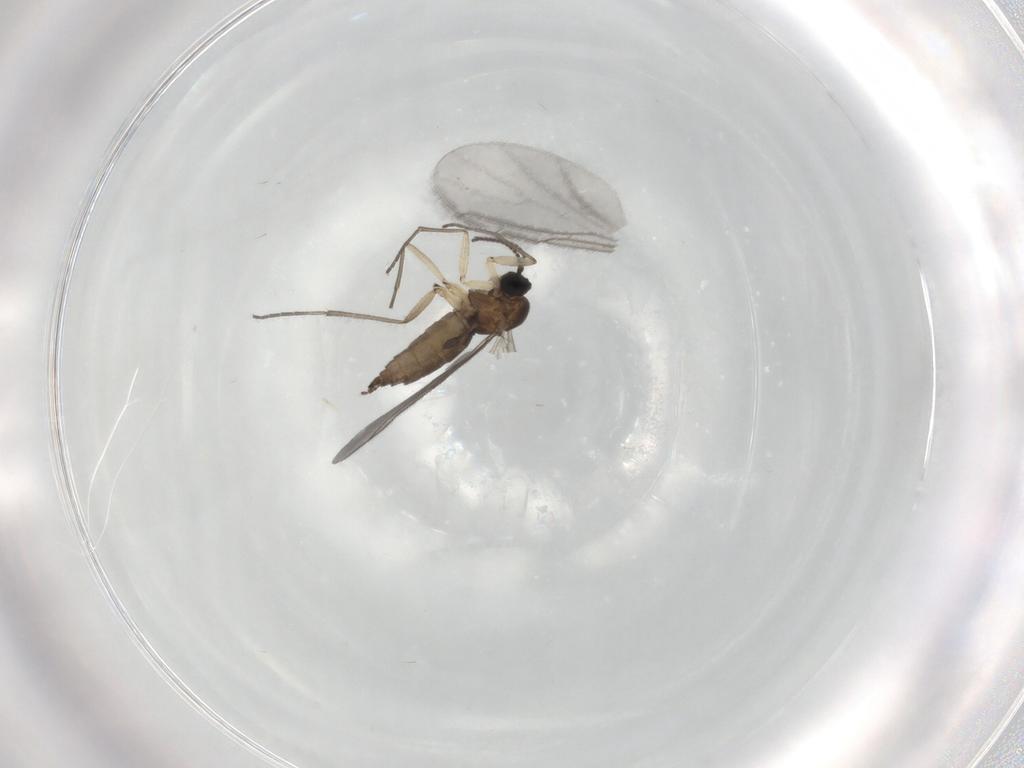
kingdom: Animalia
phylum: Arthropoda
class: Insecta
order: Diptera
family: Sciaridae
